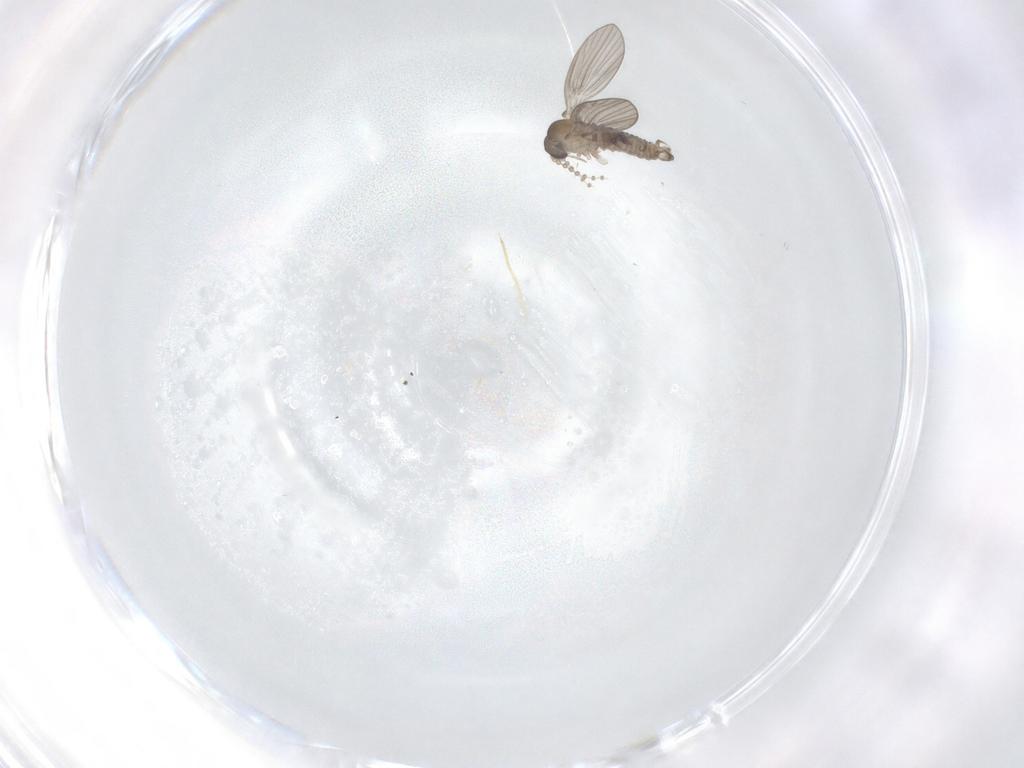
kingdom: Animalia
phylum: Arthropoda
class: Insecta
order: Diptera
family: Psychodidae
